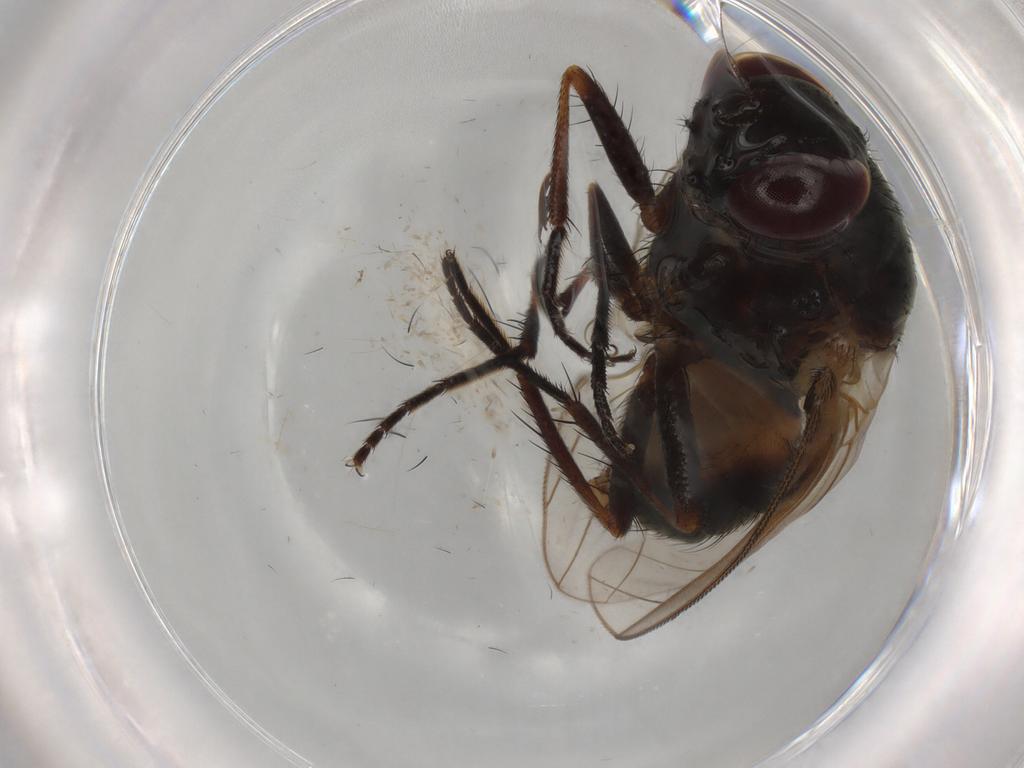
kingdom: Animalia
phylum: Arthropoda
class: Insecta
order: Diptera
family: Fannia
